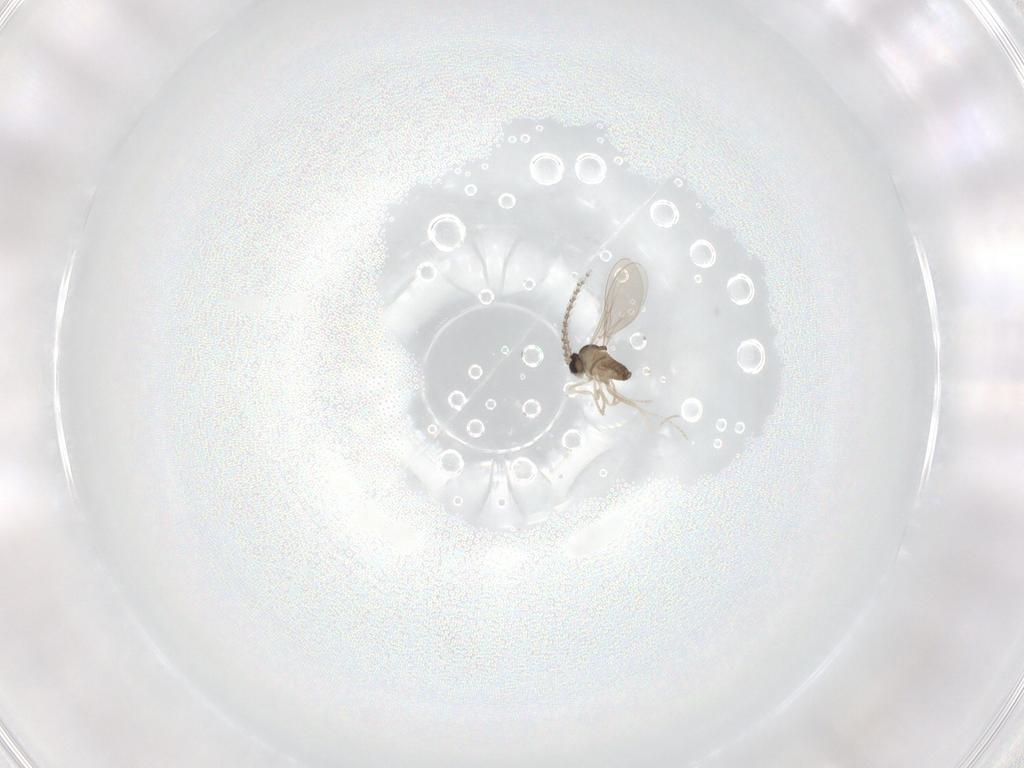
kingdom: Animalia
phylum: Arthropoda
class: Insecta
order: Diptera
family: Cecidomyiidae
